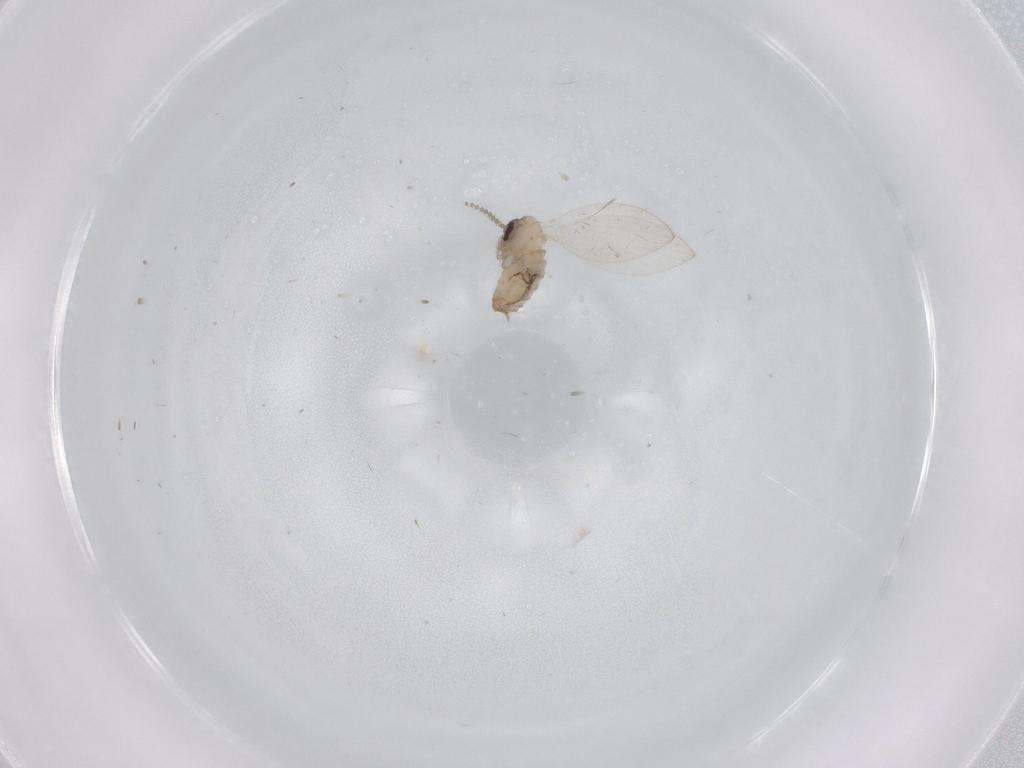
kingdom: Animalia
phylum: Arthropoda
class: Insecta
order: Diptera
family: Psychodidae
